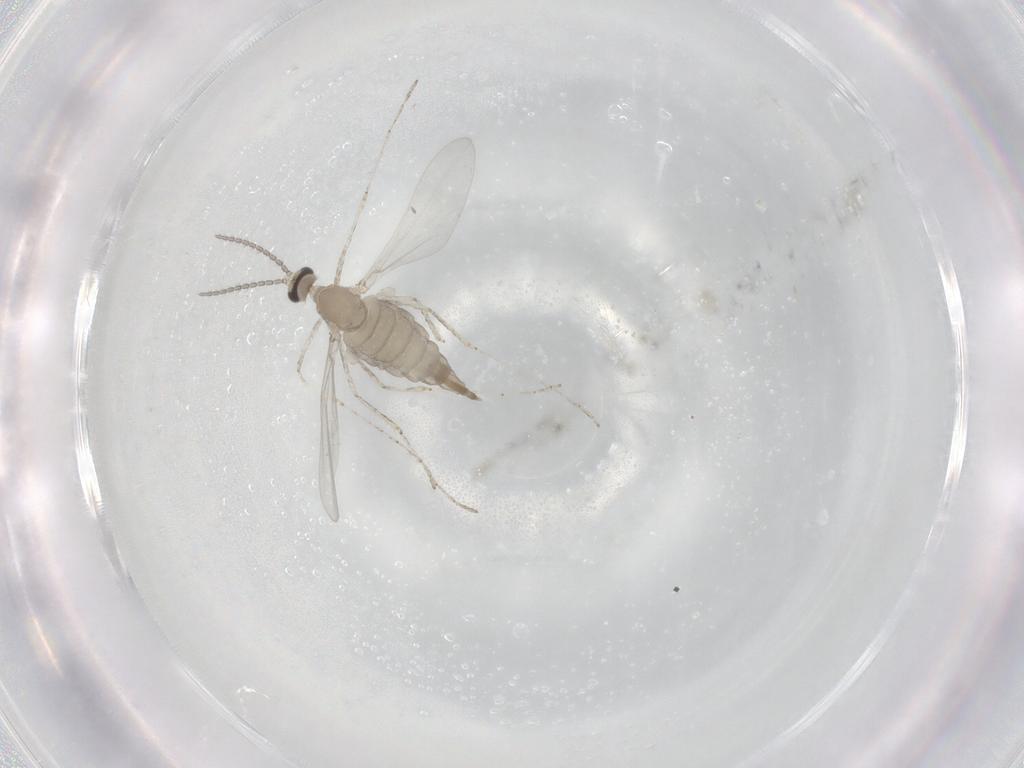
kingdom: Animalia
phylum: Arthropoda
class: Insecta
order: Diptera
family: Cecidomyiidae
